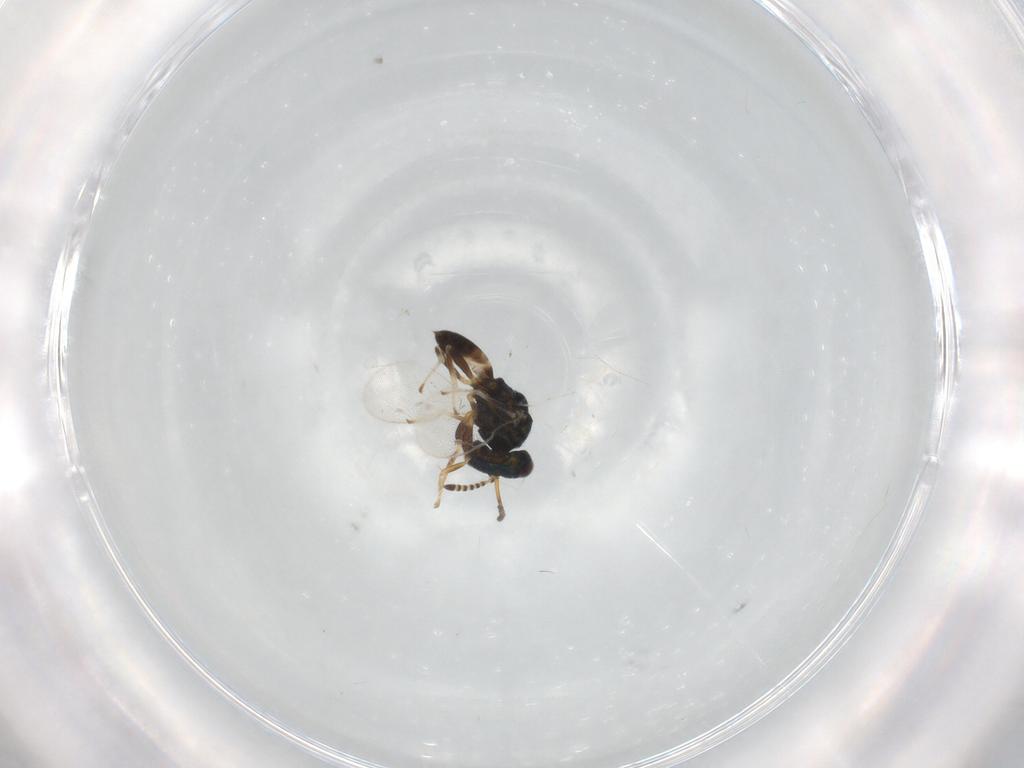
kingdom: Animalia
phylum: Arthropoda
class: Insecta
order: Hymenoptera
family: Pteromalidae
